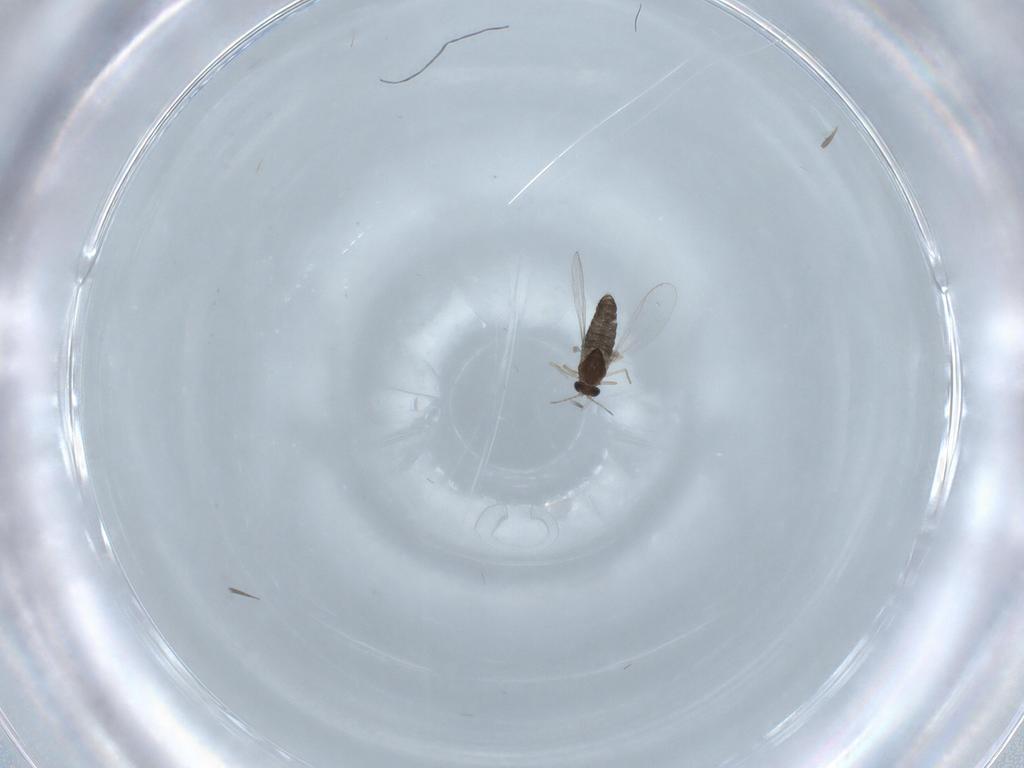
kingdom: Animalia
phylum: Arthropoda
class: Insecta
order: Diptera
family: Chironomidae
